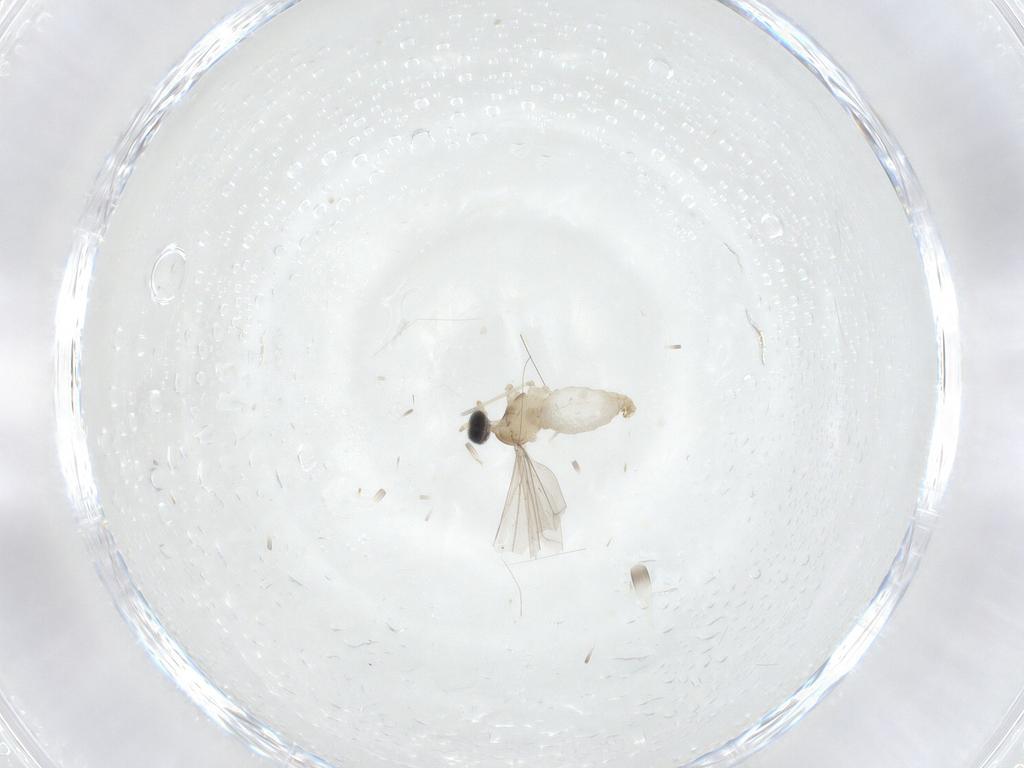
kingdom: Animalia
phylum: Arthropoda
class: Insecta
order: Diptera
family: Cecidomyiidae
